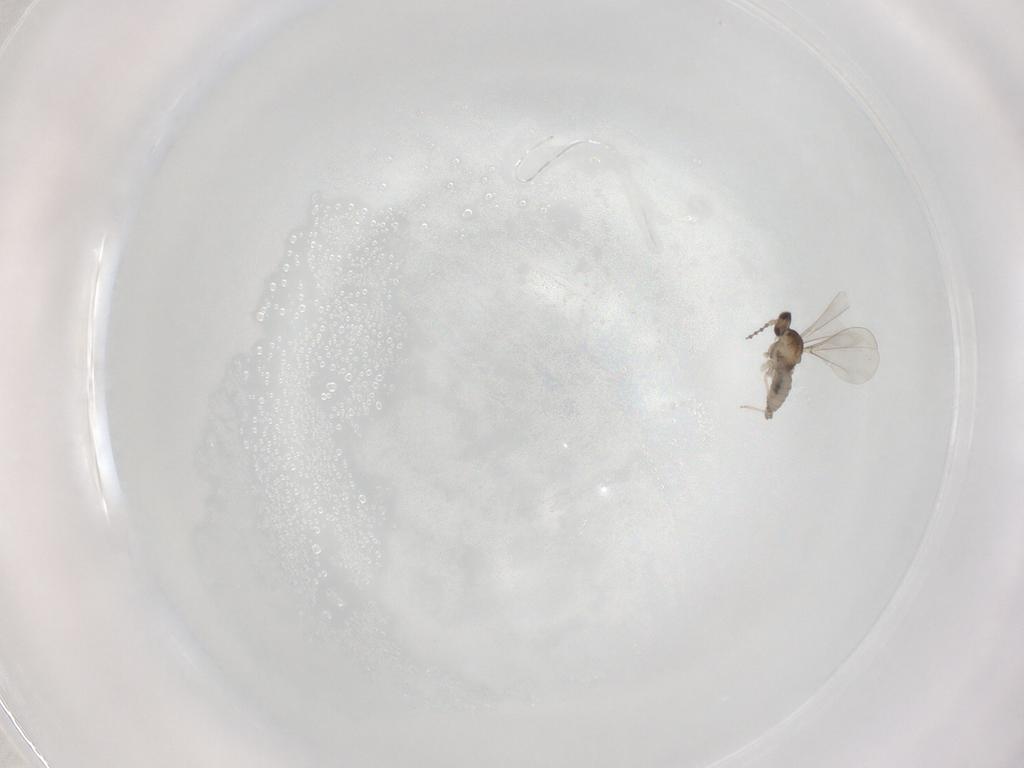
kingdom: Animalia
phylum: Arthropoda
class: Insecta
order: Diptera
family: Cecidomyiidae
